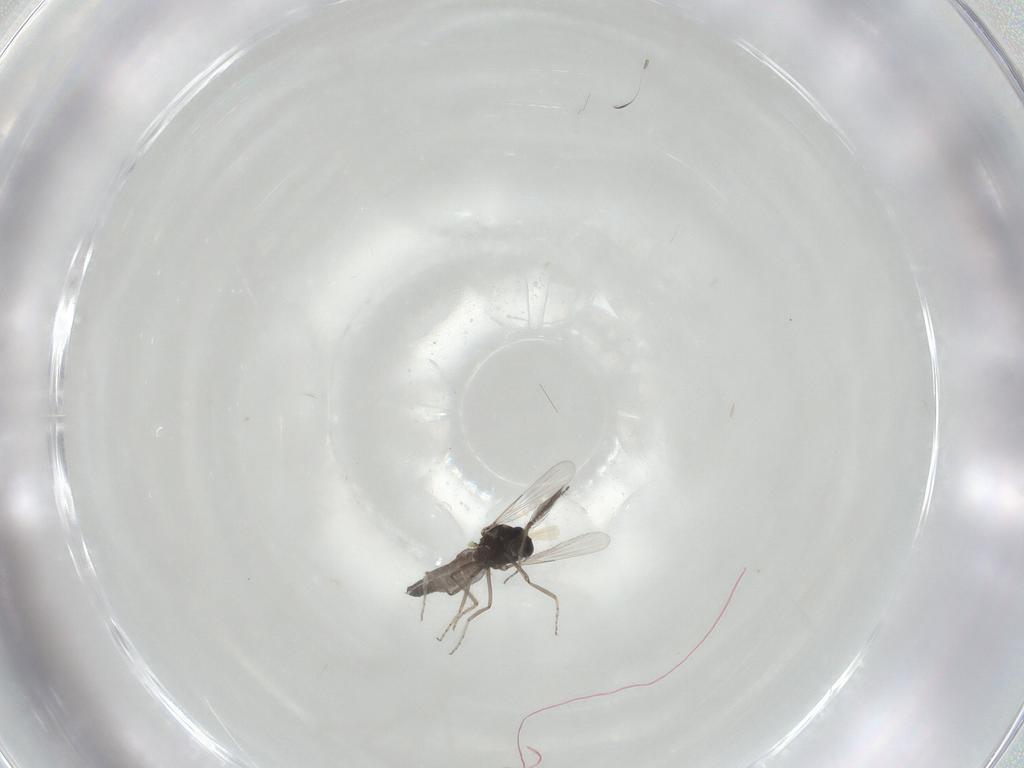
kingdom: Animalia
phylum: Arthropoda
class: Insecta
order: Diptera
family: Ceratopogonidae
